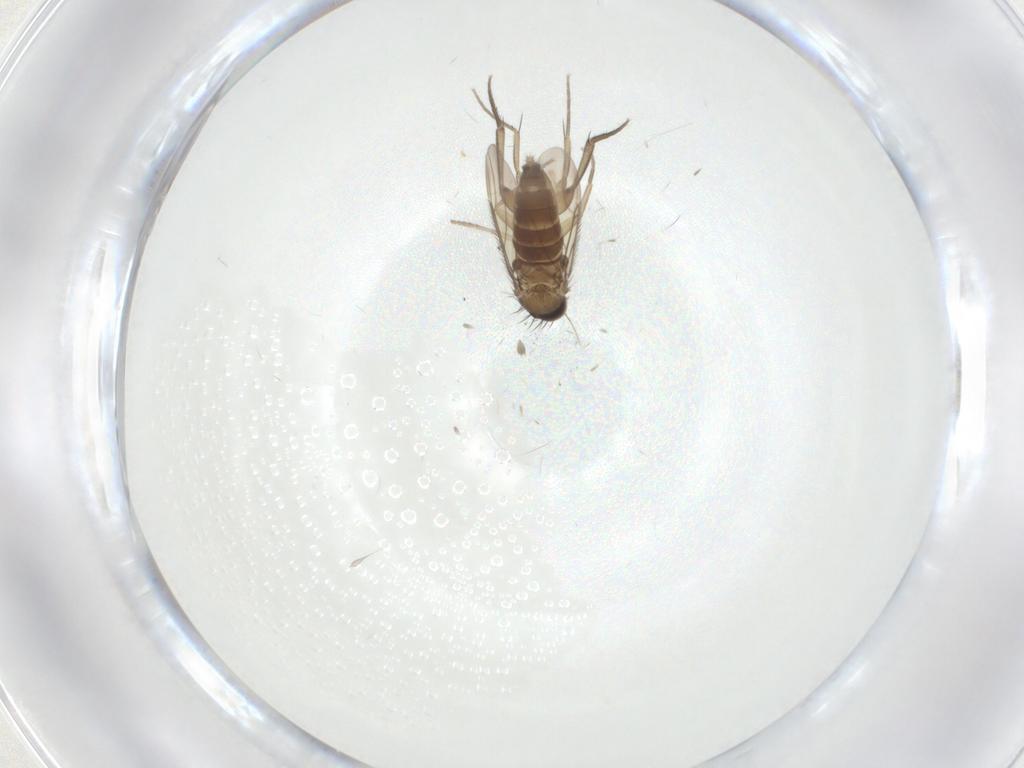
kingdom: Animalia
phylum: Arthropoda
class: Insecta
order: Diptera
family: Phoridae
